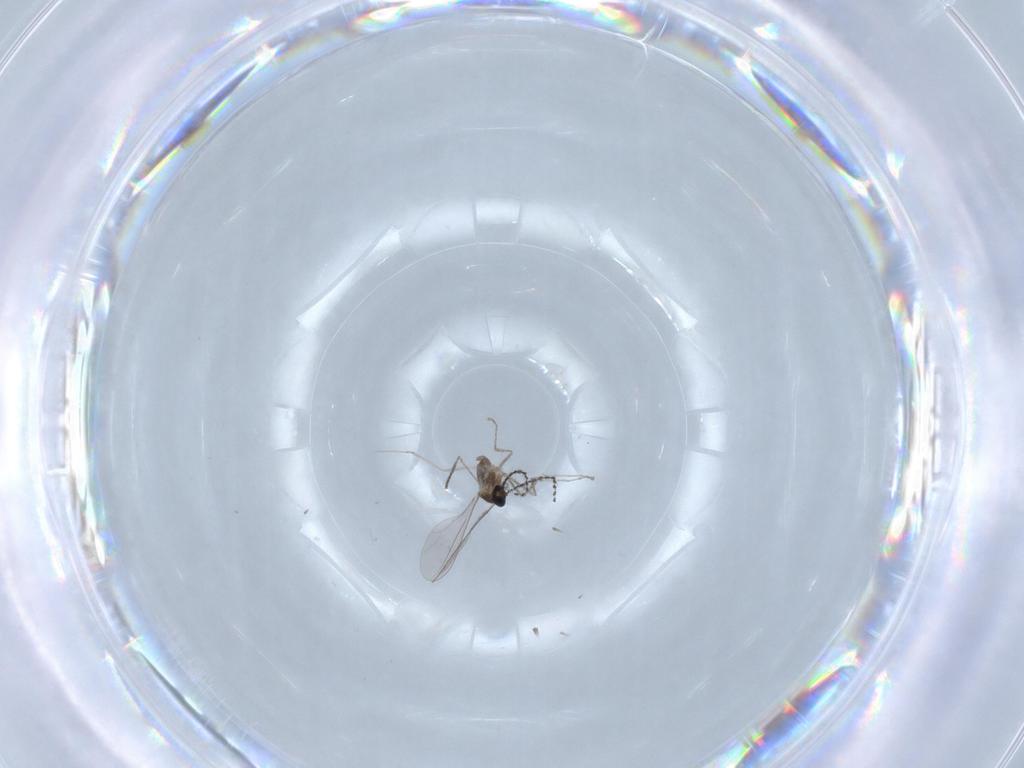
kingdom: Animalia
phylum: Arthropoda
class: Insecta
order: Diptera
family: Cecidomyiidae
